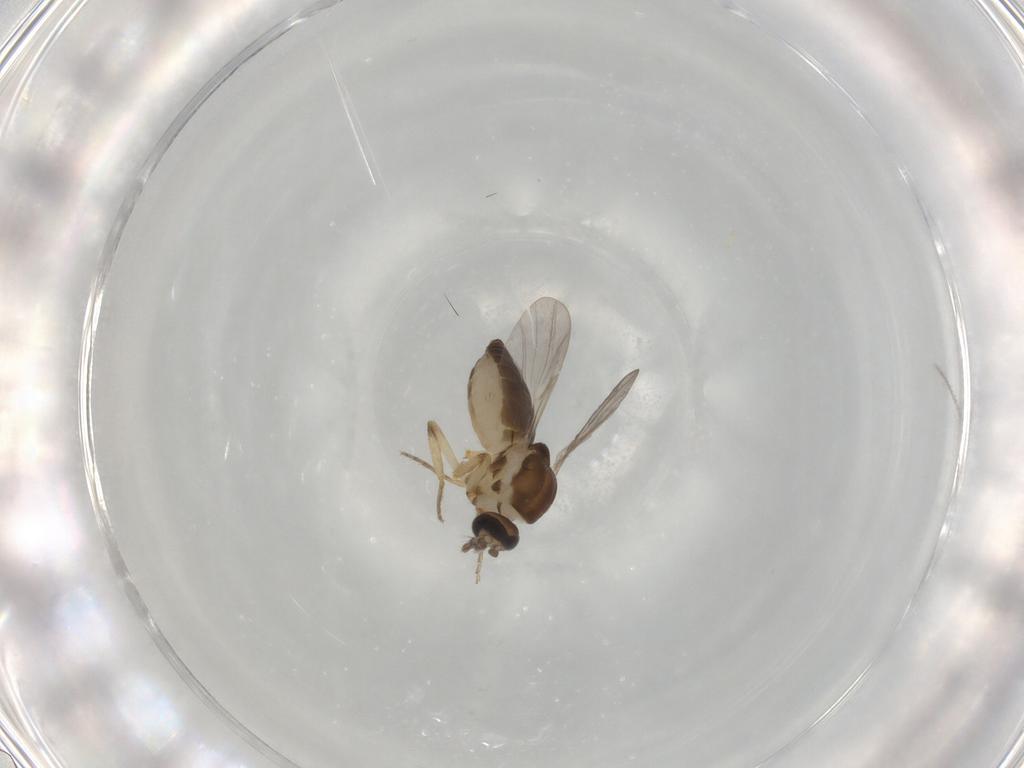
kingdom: Animalia
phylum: Arthropoda
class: Insecta
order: Diptera
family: Ceratopogonidae
